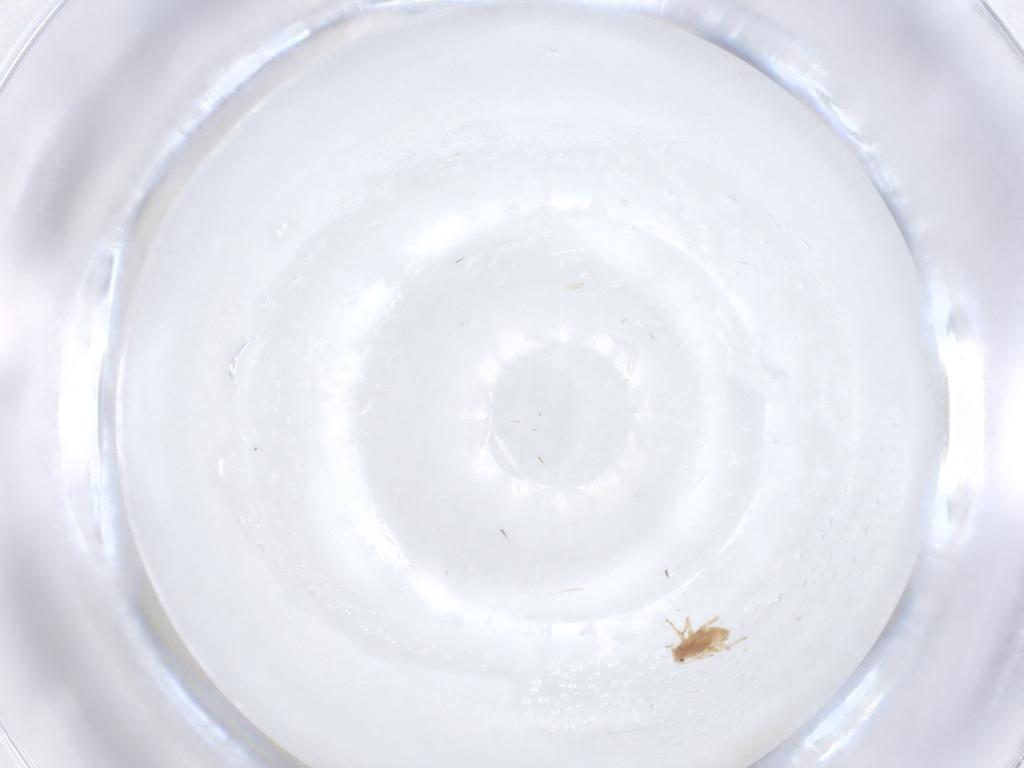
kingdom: Animalia
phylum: Arthropoda
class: Insecta
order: Hemiptera
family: Aphididae
